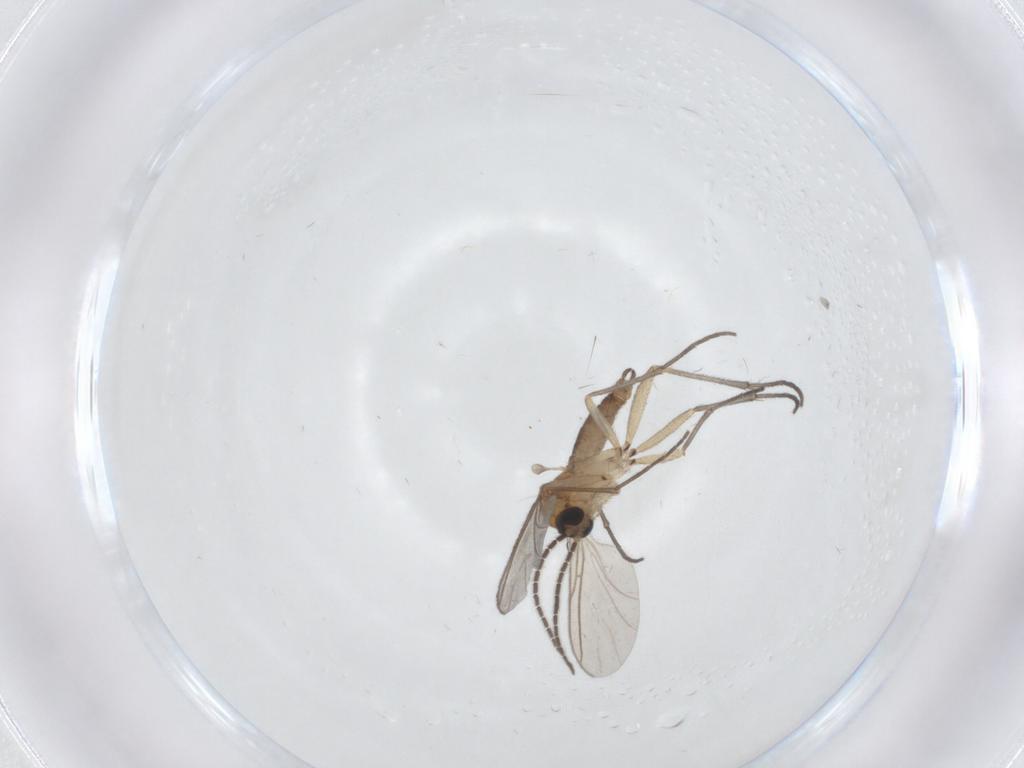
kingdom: Animalia
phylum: Arthropoda
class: Insecta
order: Diptera
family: Sciaridae
